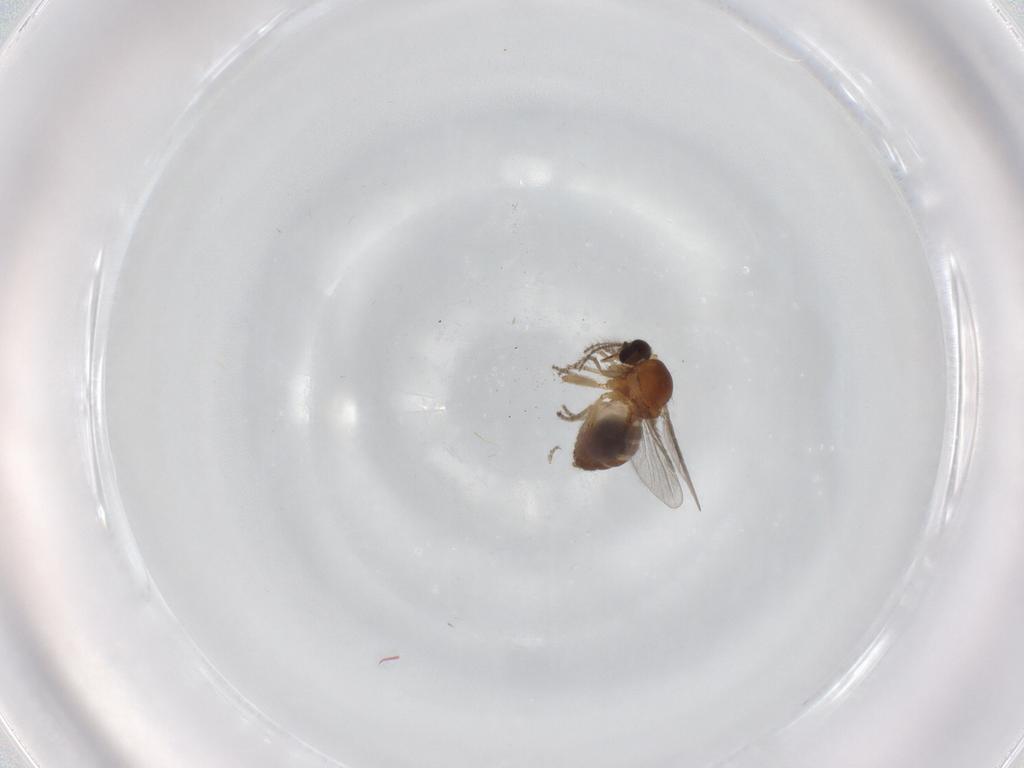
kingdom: Animalia
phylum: Arthropoda
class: Insecta
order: Diptera
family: Ceratopogonidae
